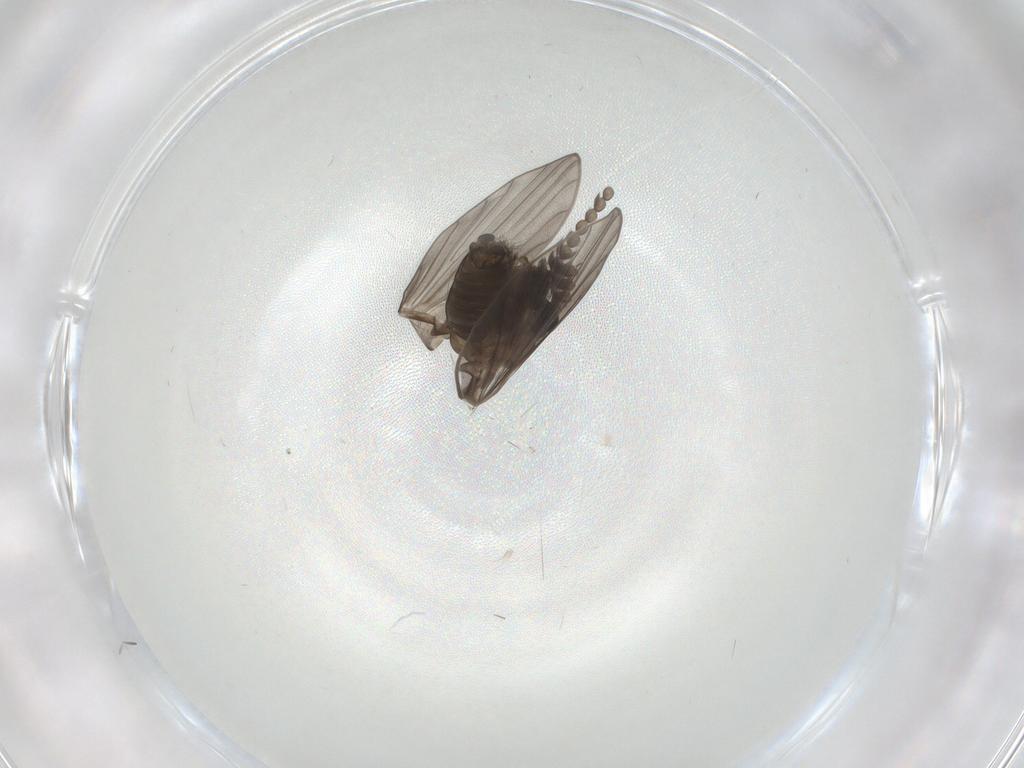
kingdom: Animalia
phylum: Arthropoda
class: Insecta
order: Diptera
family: Psychodidae
